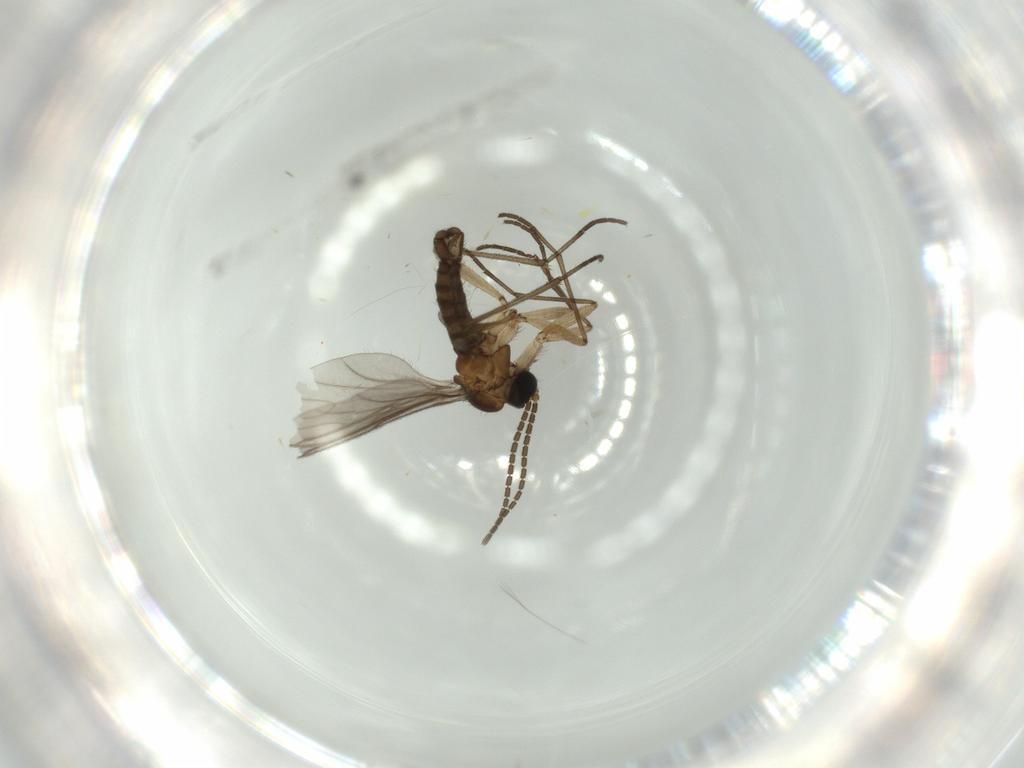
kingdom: Animalia
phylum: Arthropoda
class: Insecta
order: Diptera
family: Sciaridae
